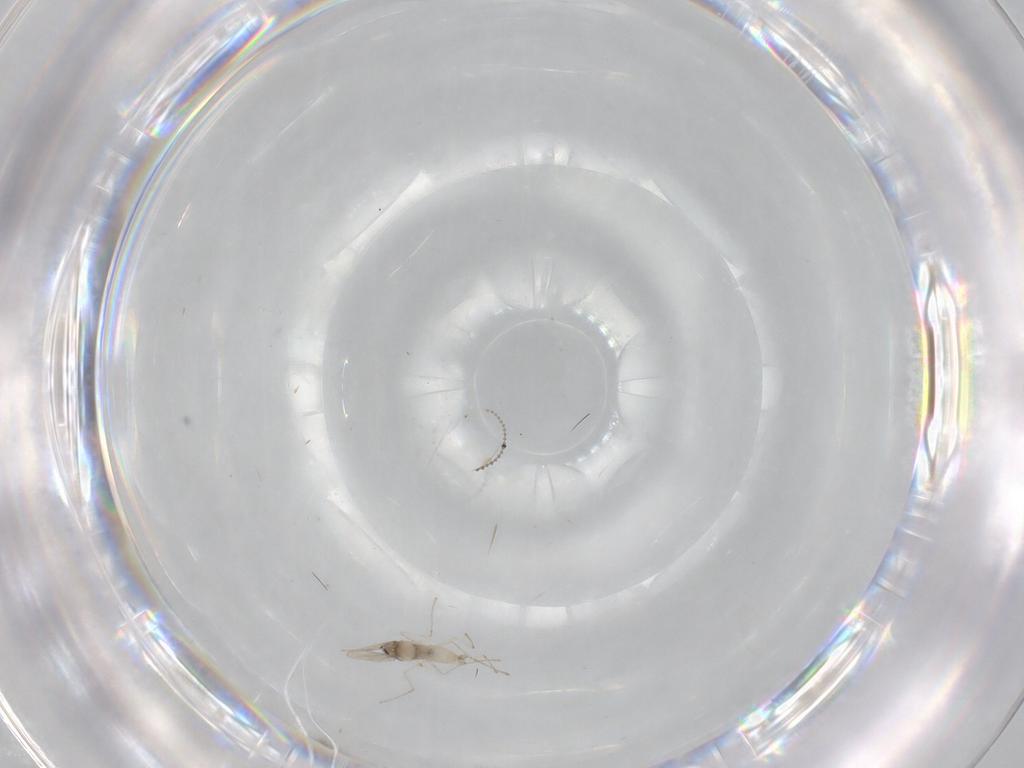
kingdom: Animalia
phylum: Arthropoda
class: Insecta
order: Diptera
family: Cecidomyiidae
